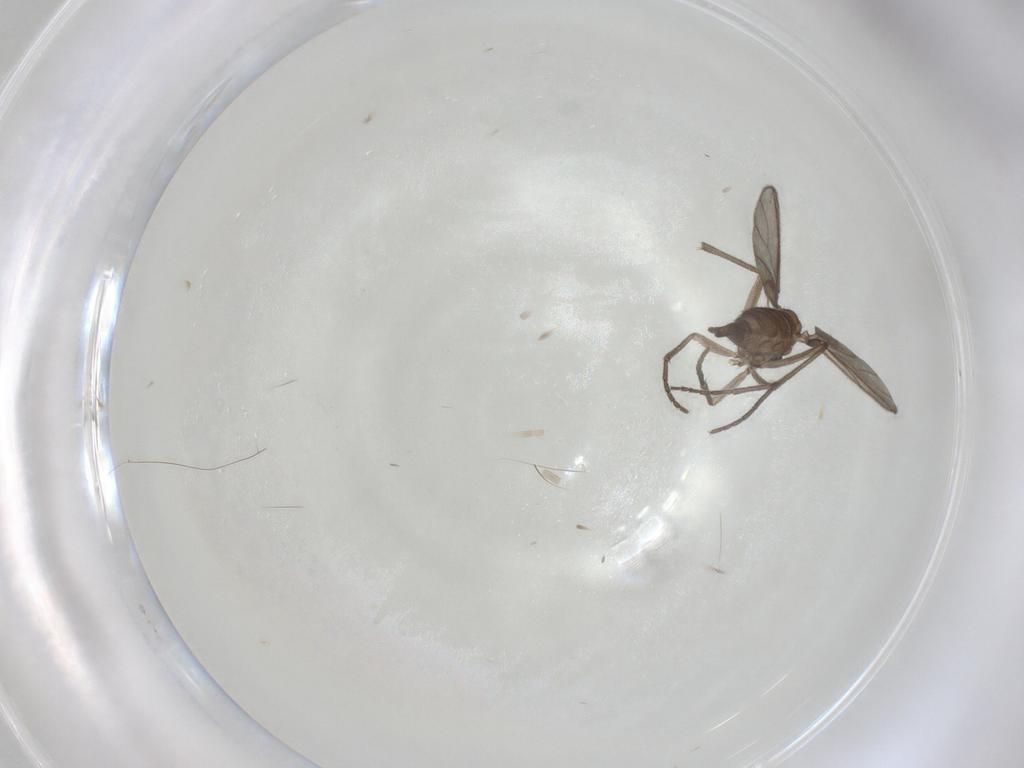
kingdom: Animalia
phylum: Arthropoda
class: Insecta
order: Diptera
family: Sciaridae
